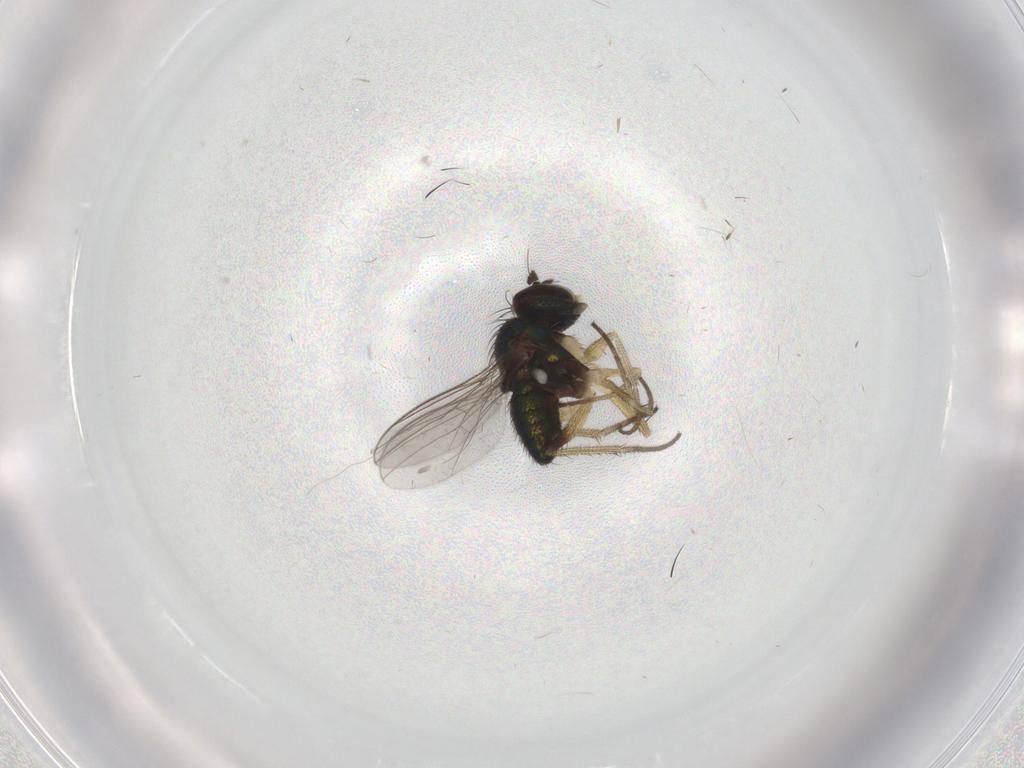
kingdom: Animalia
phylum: Arthropoda
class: Insecta
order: Diptera
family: Dolichopodidae
